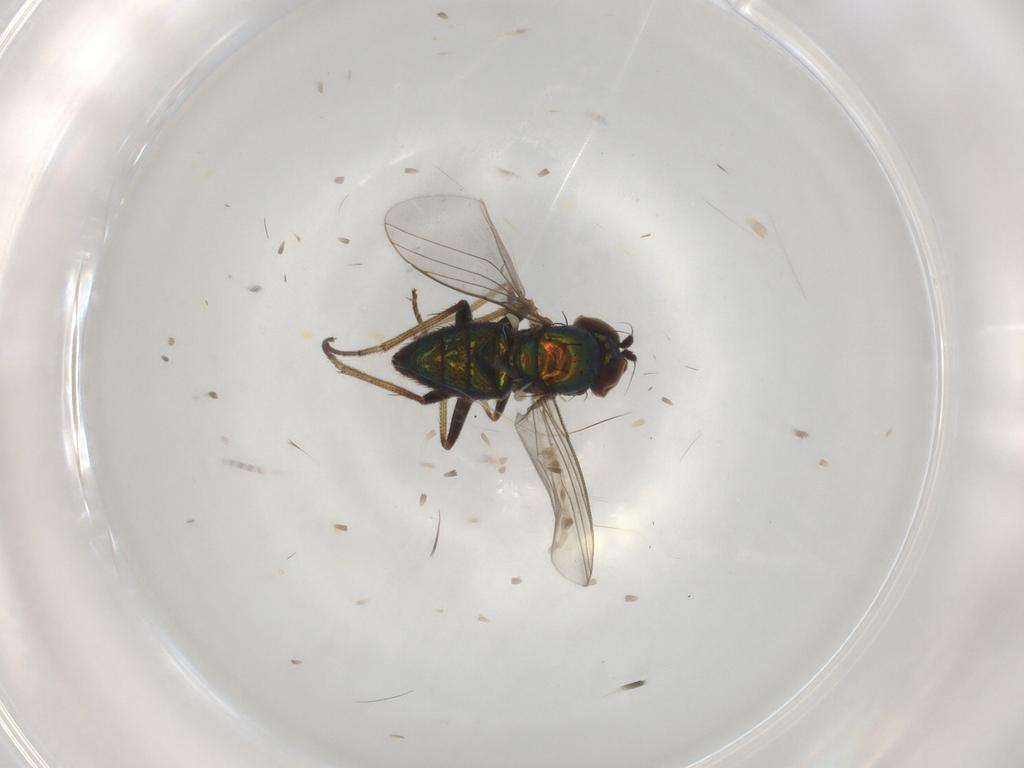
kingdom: Animalia
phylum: Arthropoda
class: Insecta
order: Diptera
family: Dolichopodidae
